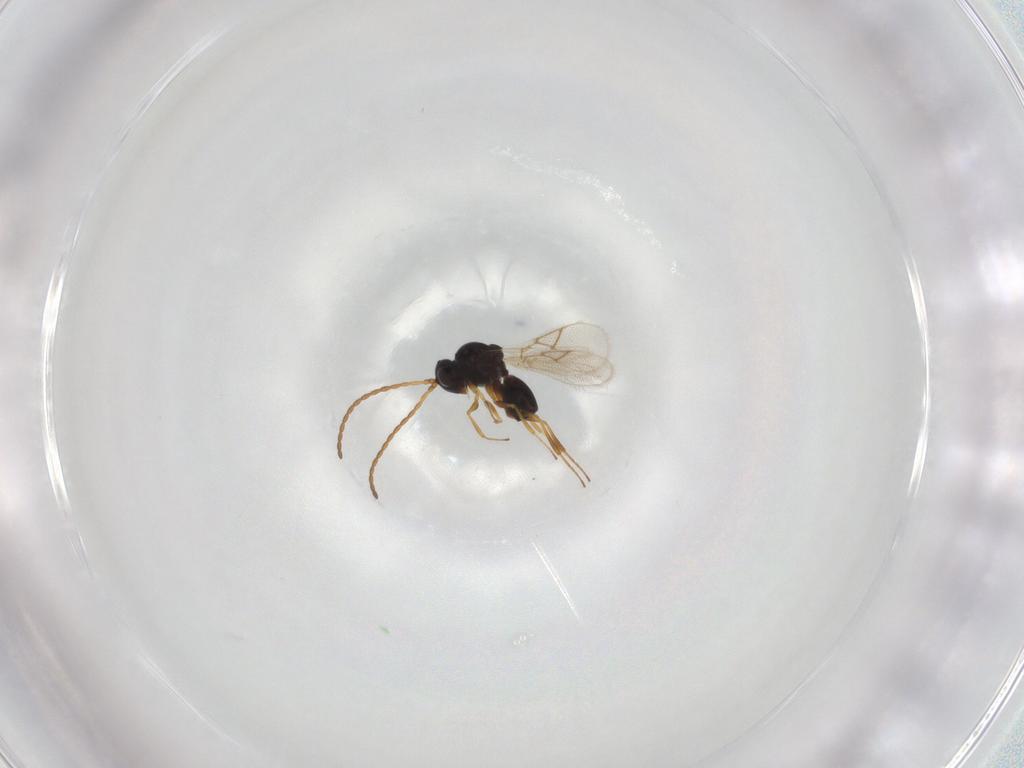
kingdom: Animalia
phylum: Arthropoda
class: Insecta
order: Hymenoptera
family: Figitidae
